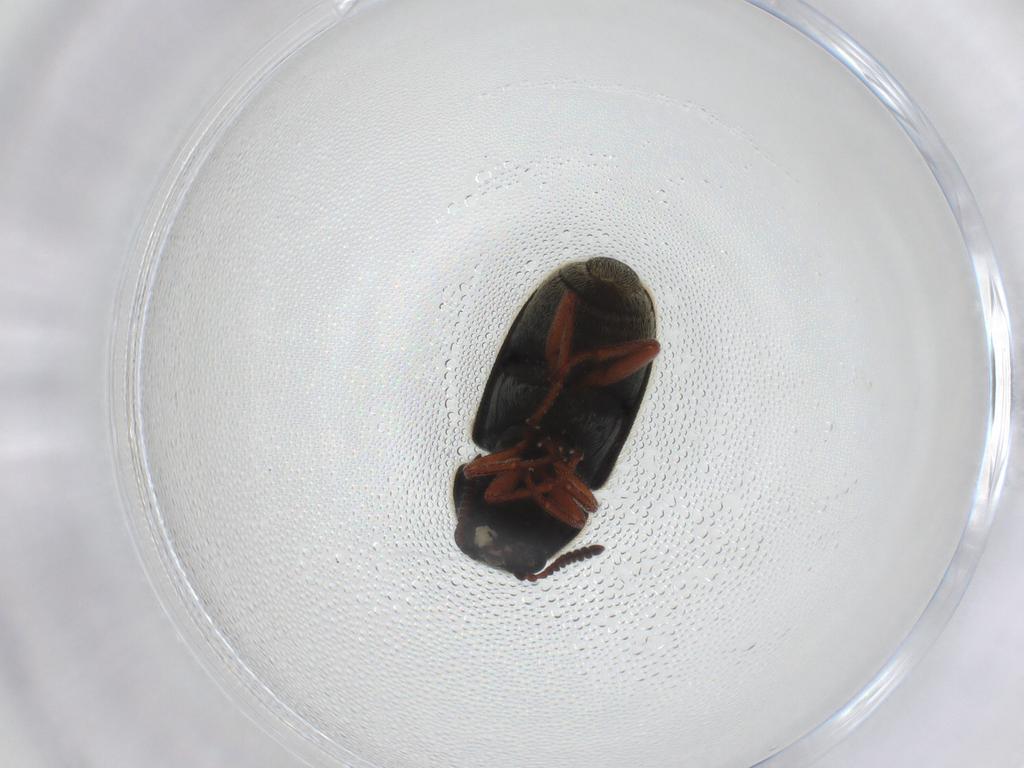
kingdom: Animalia
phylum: Arthropoda
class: Insecta
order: Coleoptera
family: Melyridae
